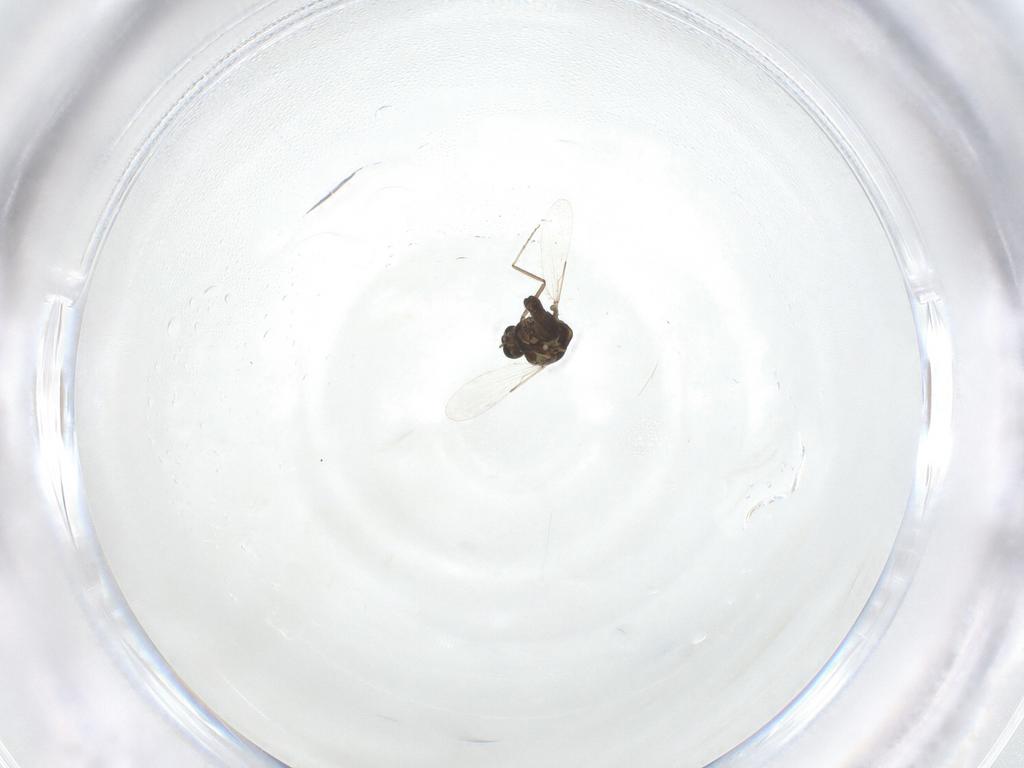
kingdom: Animalia
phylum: Arthropoda
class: Insecta
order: Diptera
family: Ceratopogonidae
